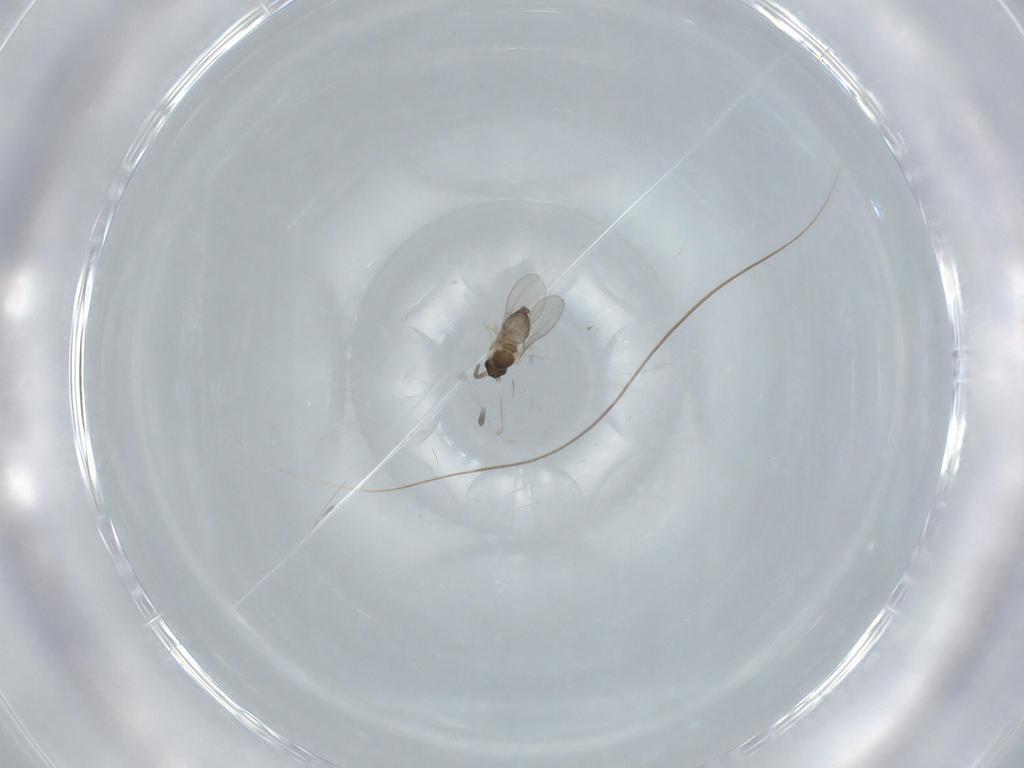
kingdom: Animalia
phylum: Arthropoda
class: Insecta
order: Diptera
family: Cecidomyiidae
